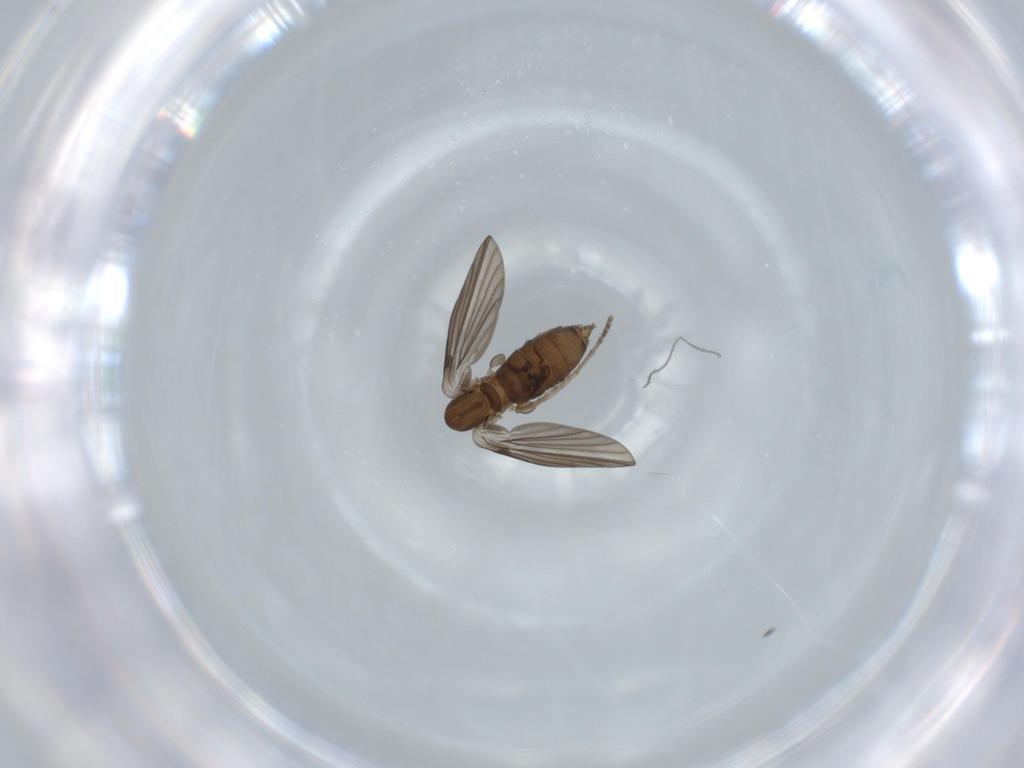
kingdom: Animalia
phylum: Arthropoda
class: Insecta
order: Diptera
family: Psychodidae
